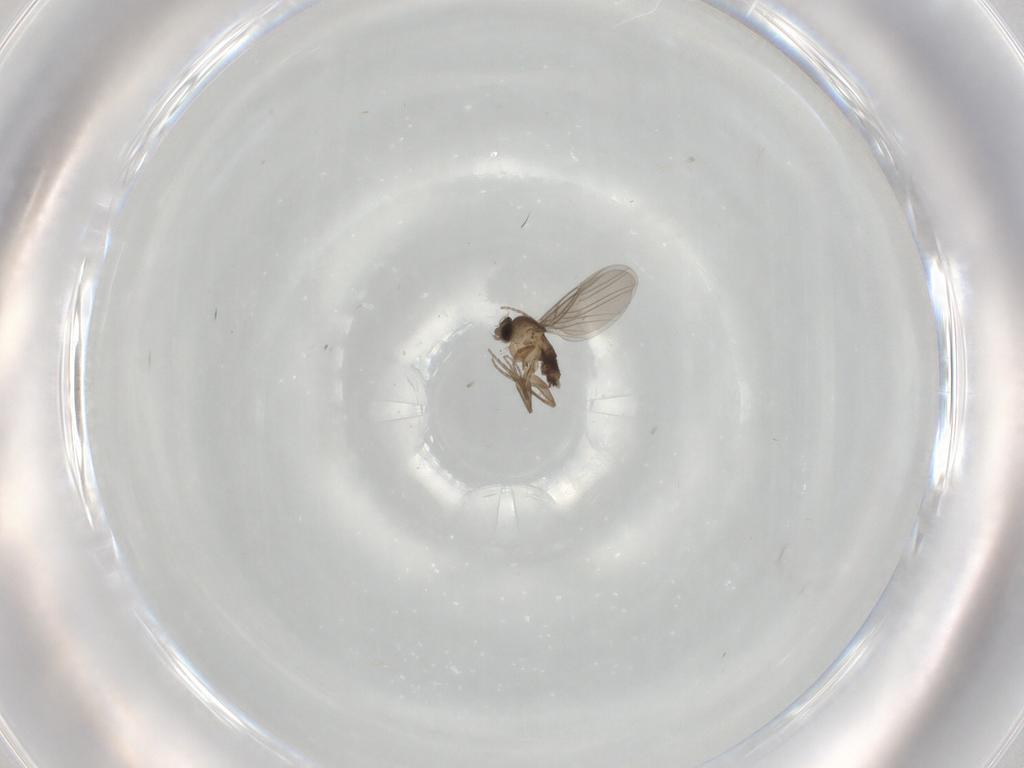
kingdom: Animalia
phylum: Arthropoda
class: Insecta
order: Diptera
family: Phoridae
